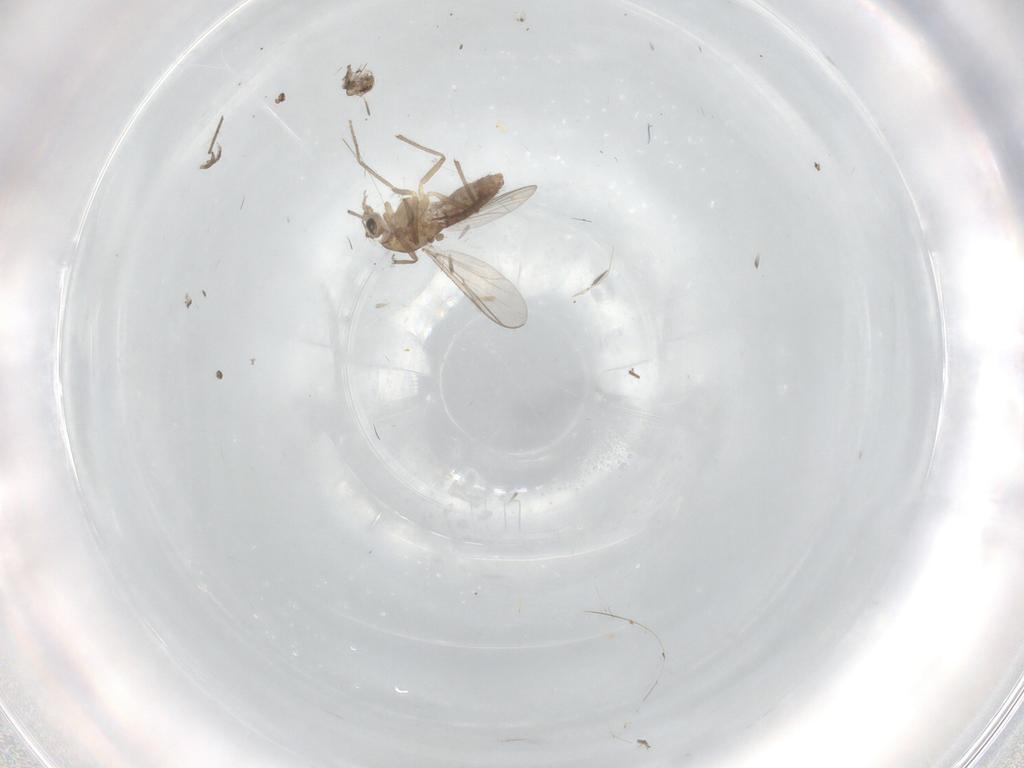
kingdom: Animalia
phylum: Arthropoda
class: Insecta
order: Diptera
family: Chironomidae
